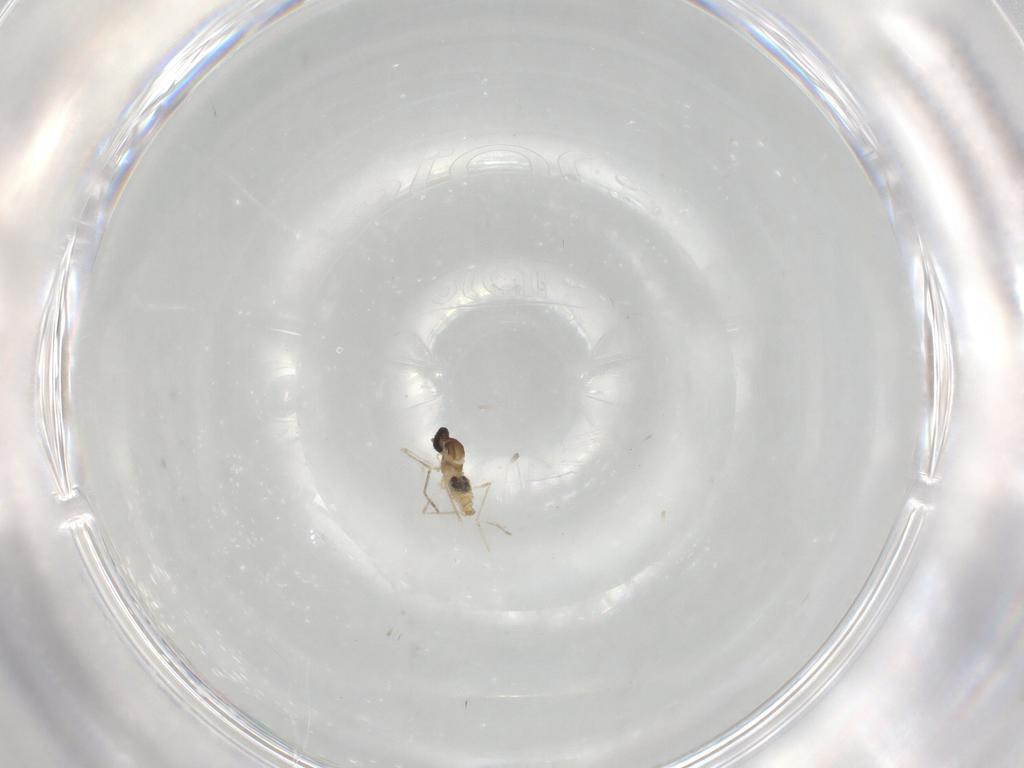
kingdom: Animalia
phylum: Arthropoda
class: Insecta
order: Diptera
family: Cecidomyiidae
